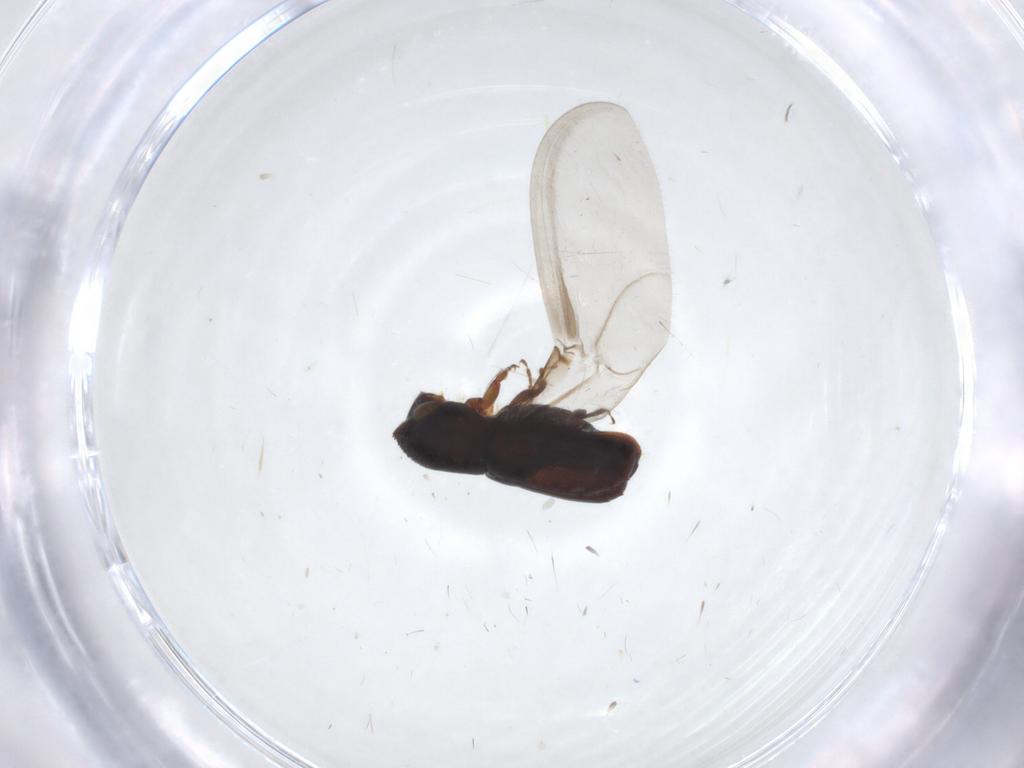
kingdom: Animalia
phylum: Arthropoda
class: Insecta
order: Coleoptera
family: Curculionidae
